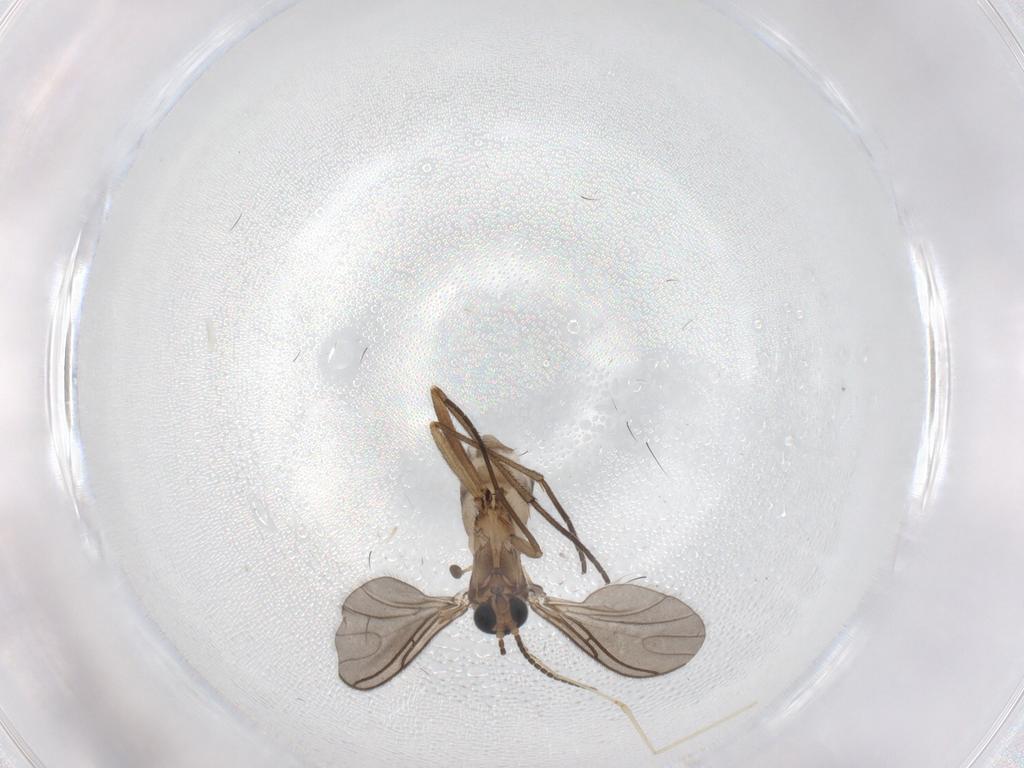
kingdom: Animalia
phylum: Arthropoda
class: Insecta
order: Diptera
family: Sciaridae
